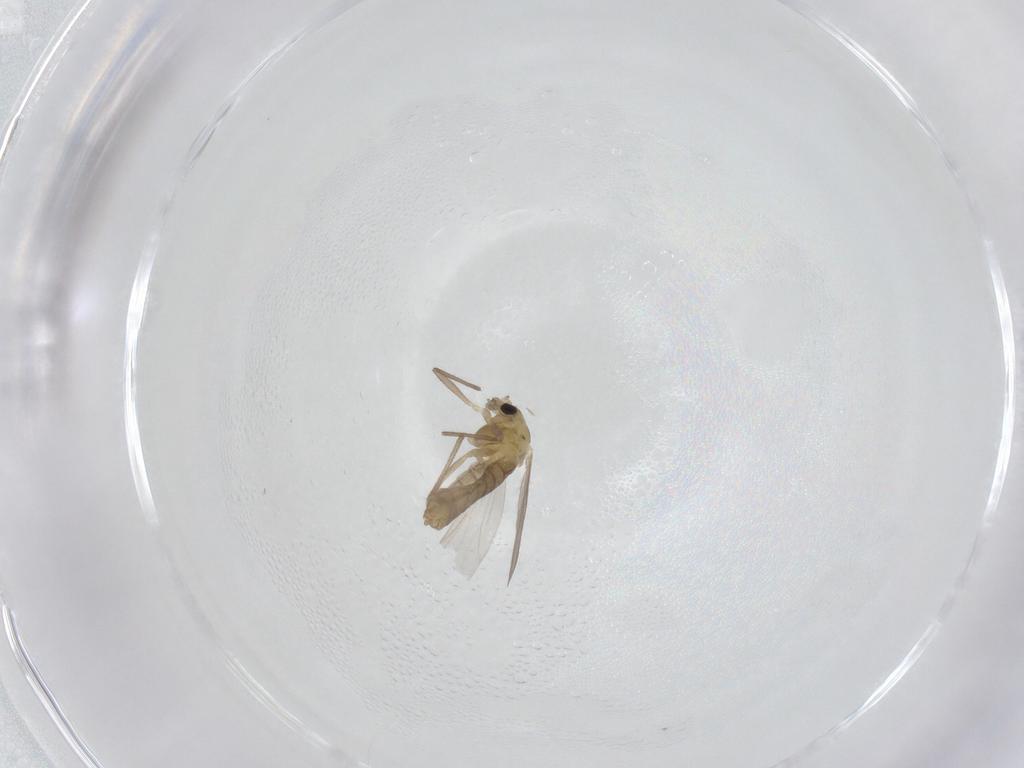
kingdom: Animalia
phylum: Arthropoda
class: Insecta
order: Diptera
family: Chironomidae
